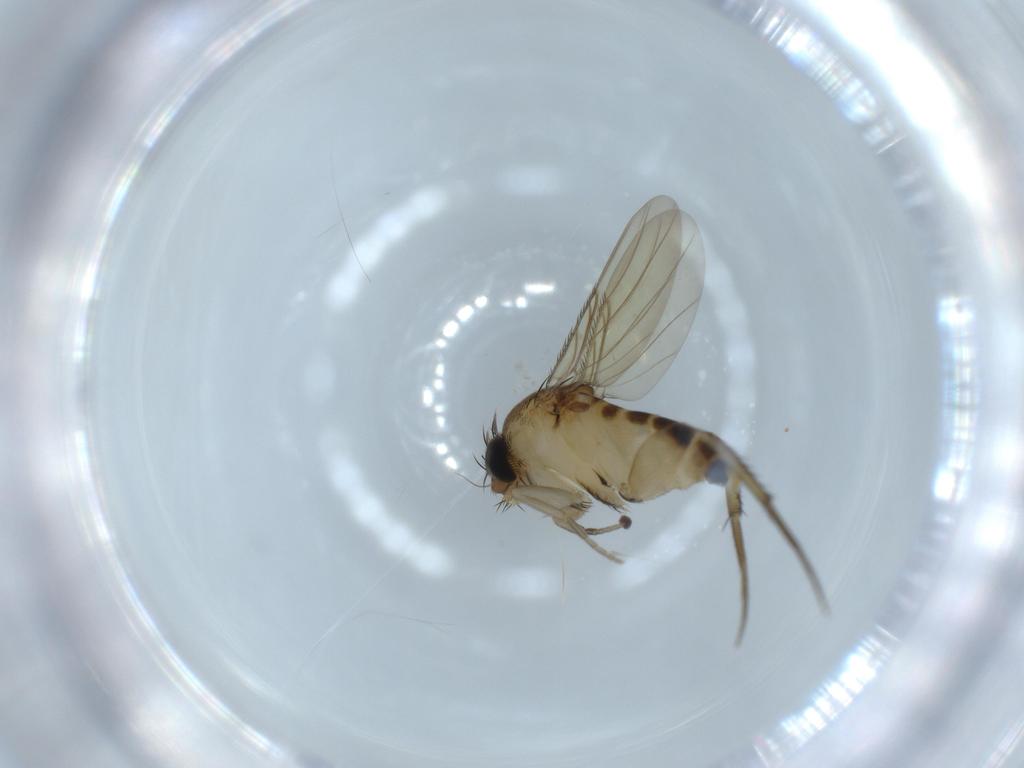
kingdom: Animalia
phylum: Arthropoda
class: Insecta
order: Diptera
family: Phoridae
